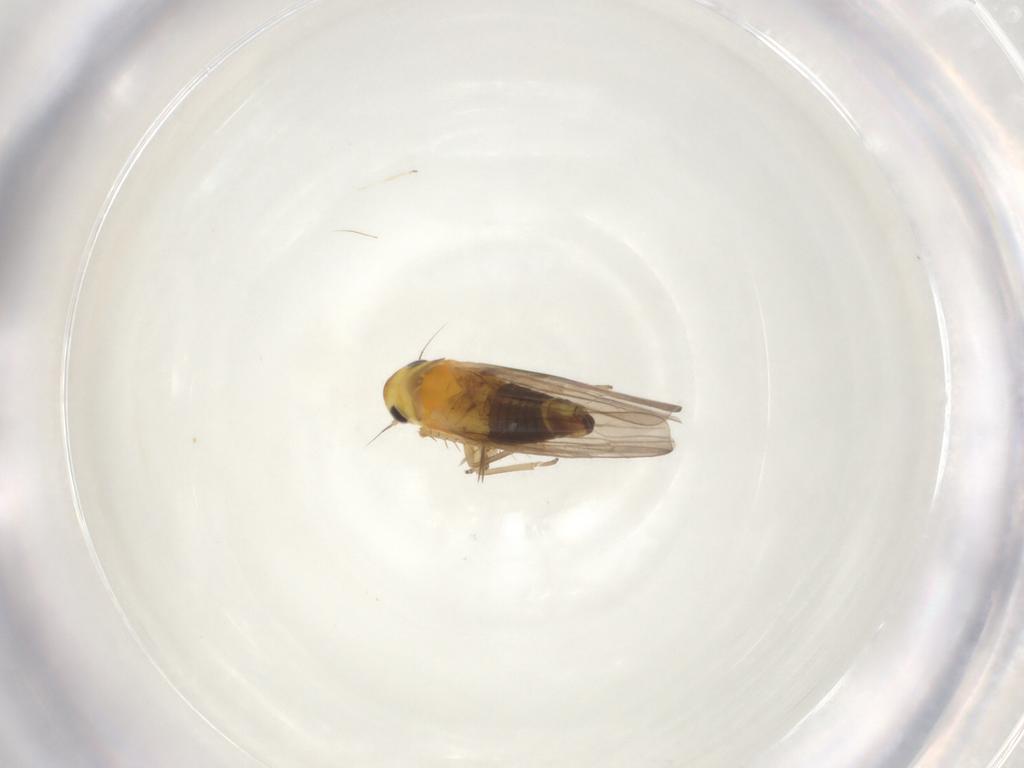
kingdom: Animalia
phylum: Arthropoda
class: Insecta
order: Hemiptera
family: Cicadellidae
